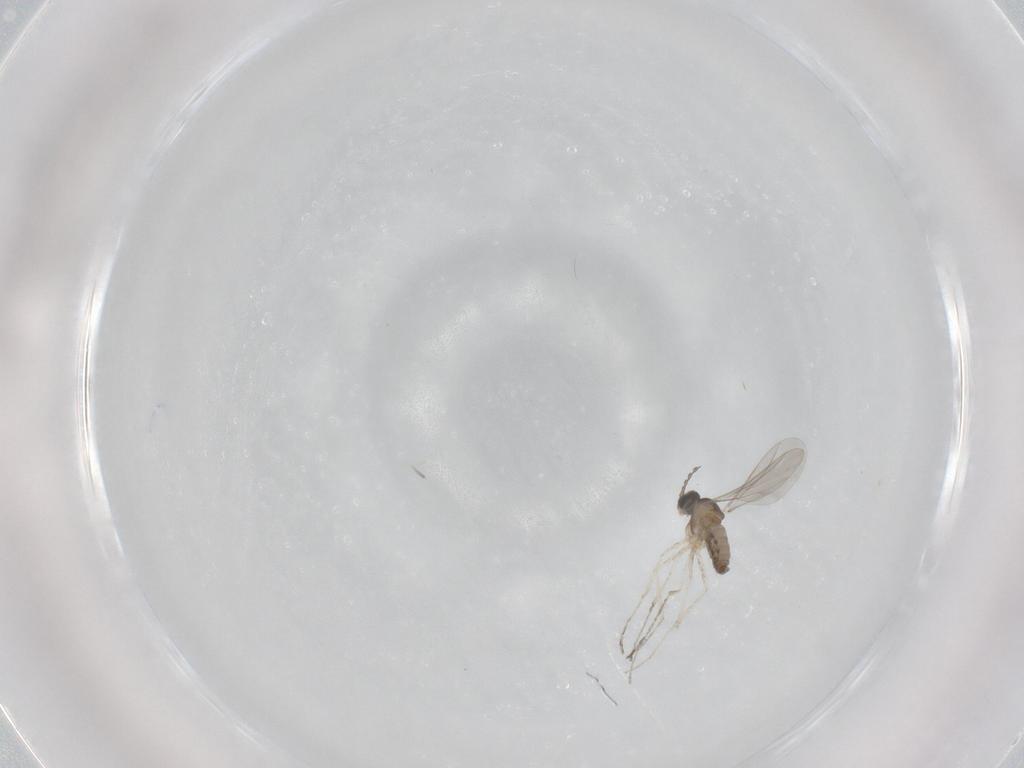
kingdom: Animalia
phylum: Arthropoda
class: Insecta
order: Diptera
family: Cecidomyiidae
